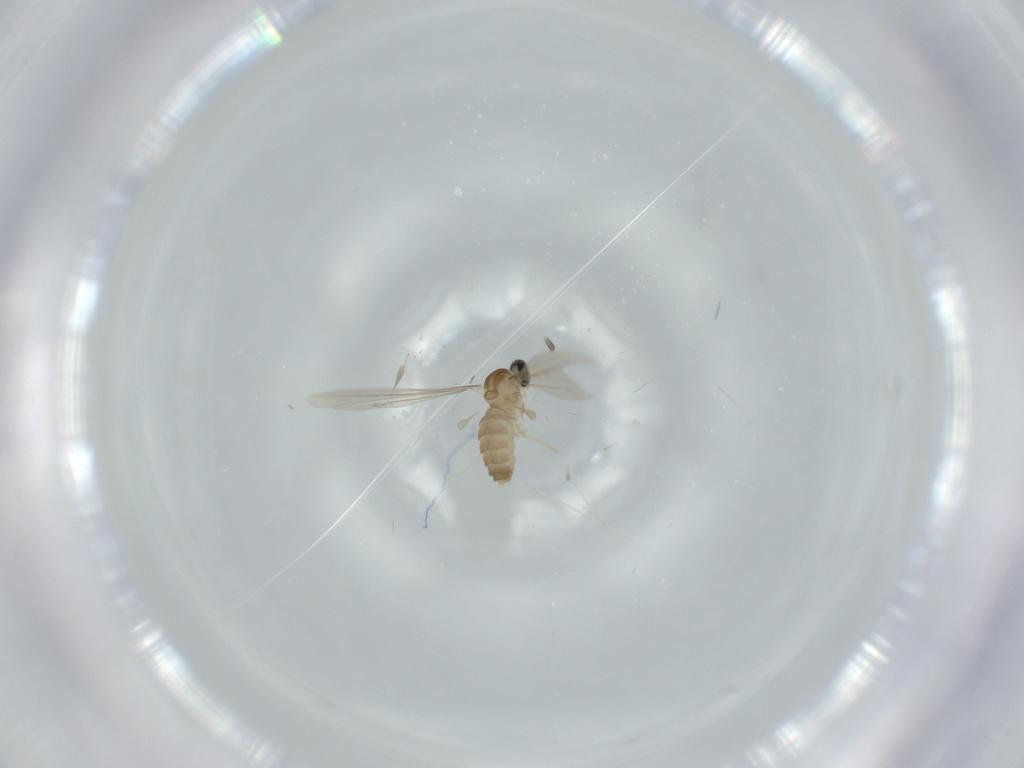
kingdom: Animalia
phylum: Arthropoda
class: Insecta
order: Diptera
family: Cecidomyiidae
